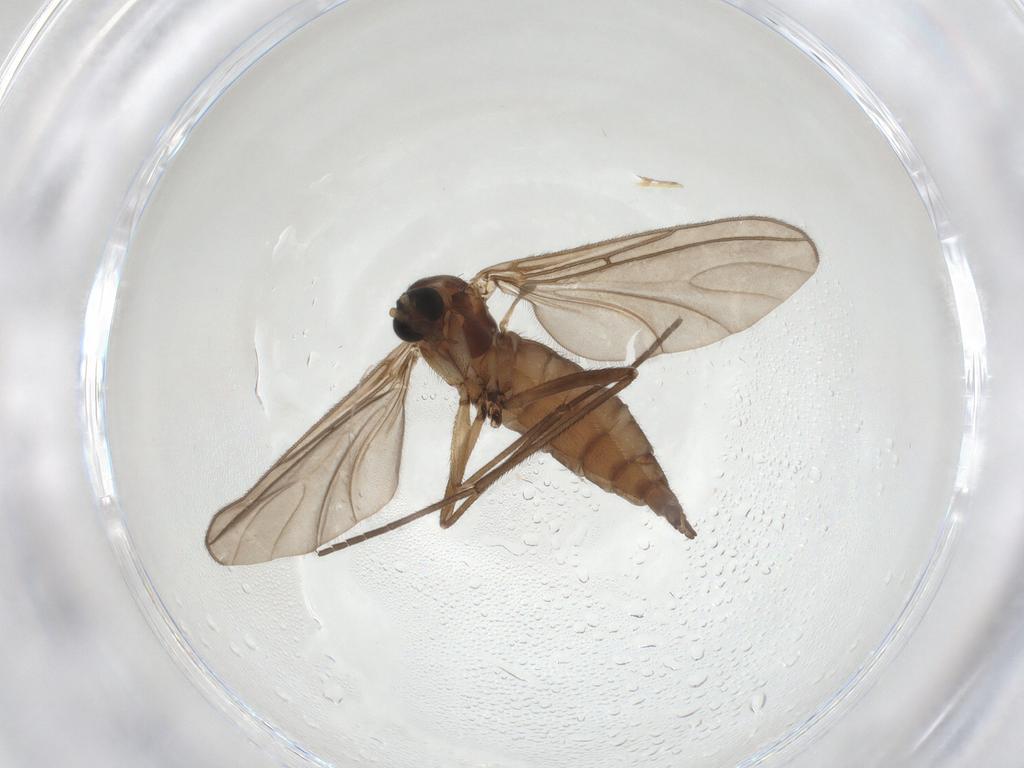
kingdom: Animalia
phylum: Arthropoda
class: Insecta
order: Diptera
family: Sciaridae
